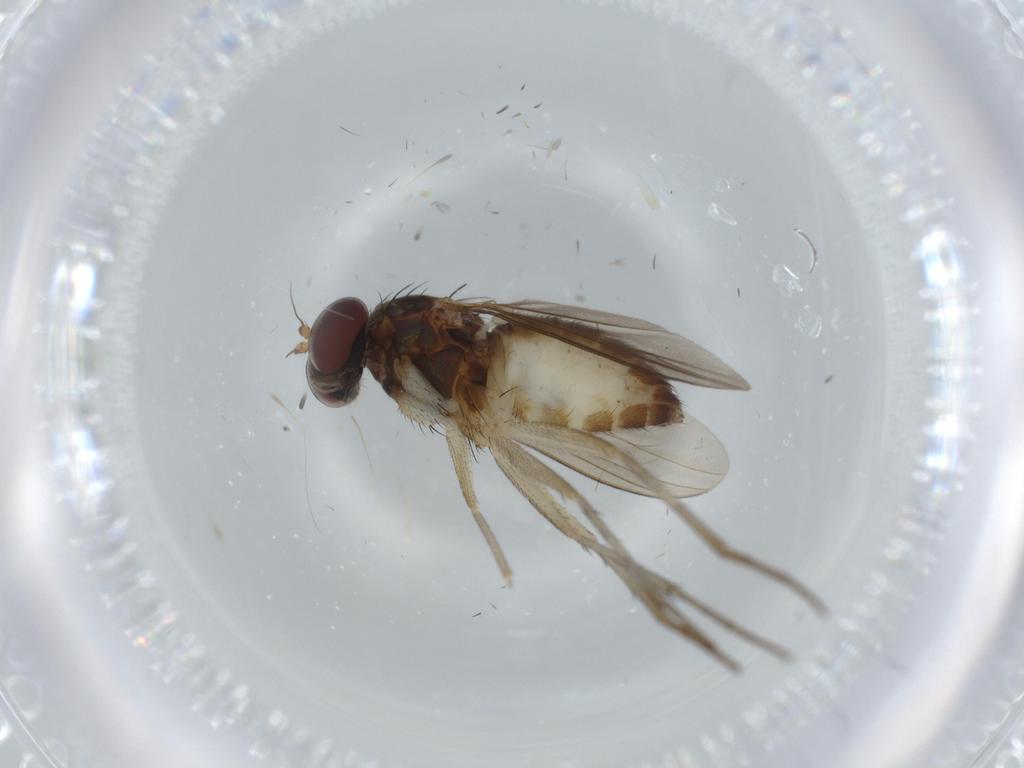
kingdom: Animalia
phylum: Arthropoda
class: Insecta
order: Diptera
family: Dolichopodidae
